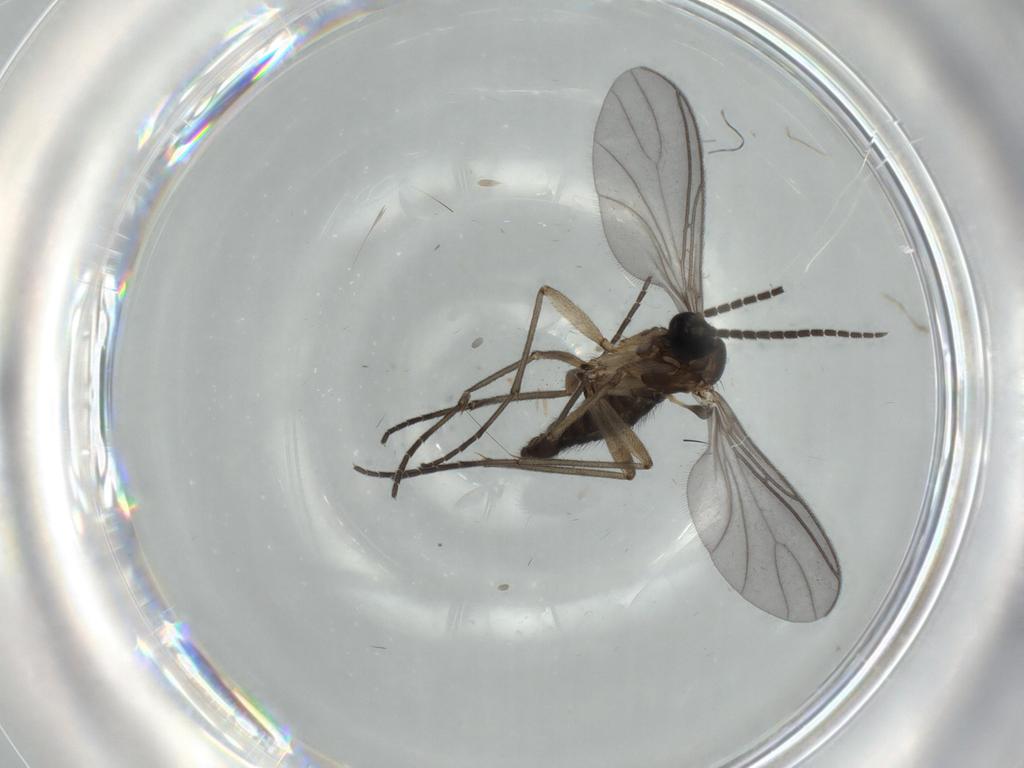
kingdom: Animalia
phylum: Arthropoda
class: Insecta
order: Diptera
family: Sciaridae
